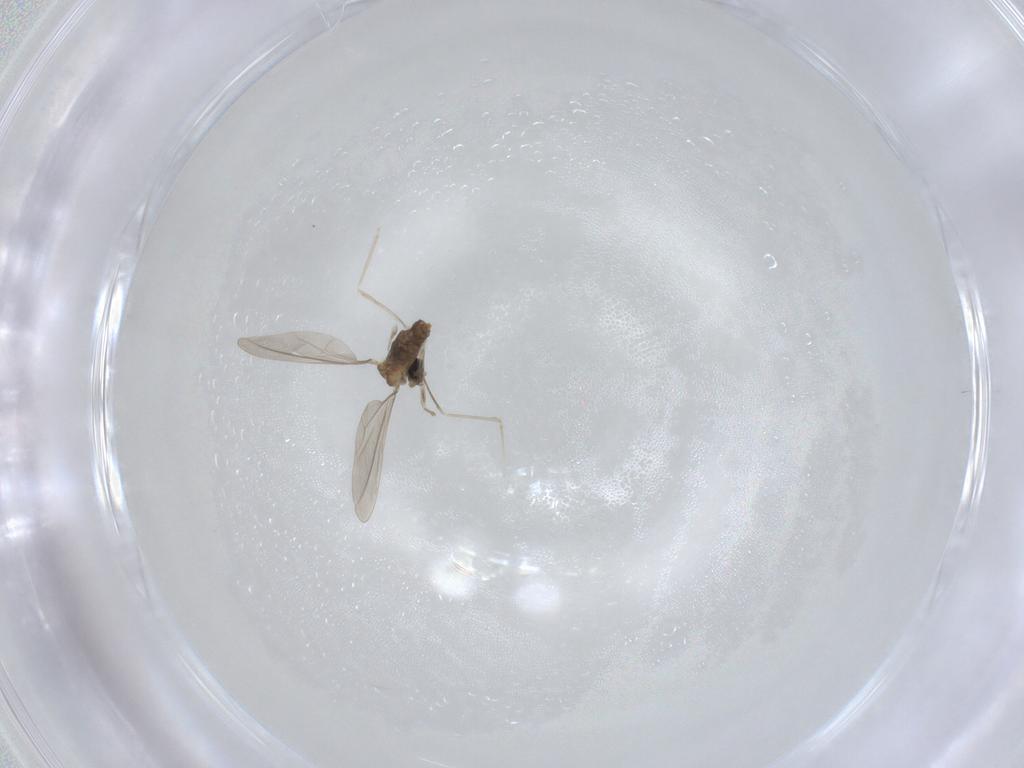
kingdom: Animalia
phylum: Arthropoda
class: Insecta
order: Diptera
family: Cecidomyiidae
